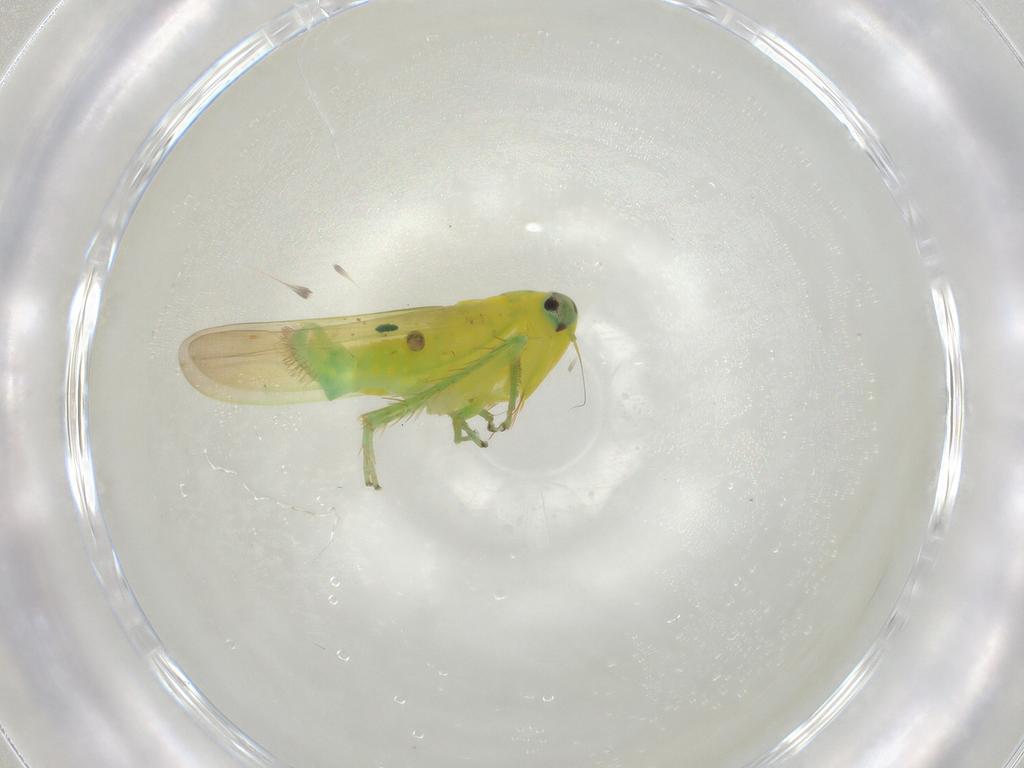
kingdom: Animalia
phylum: Arthropoda
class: Insecta
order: Hemiptera
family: Cicadellidae
